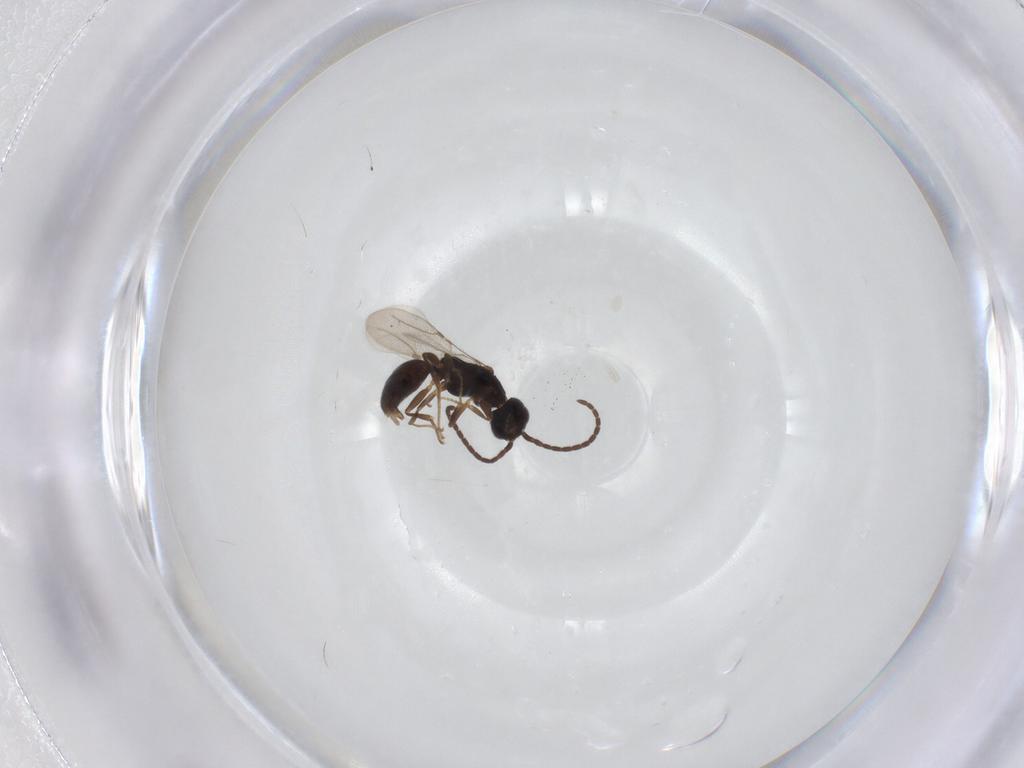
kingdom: Animalia
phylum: Arthropoda
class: Insecta
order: Hymenoptera
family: Bethylidae
